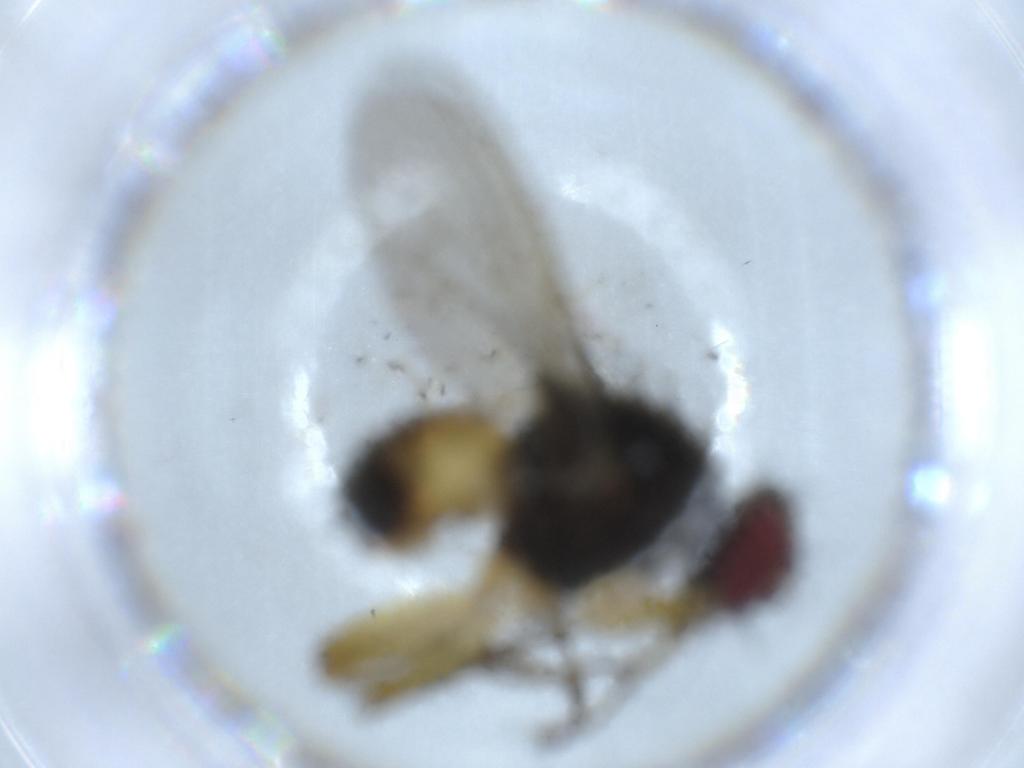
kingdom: Animalia
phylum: Arthropoda
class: Insecta
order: Diptera
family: Muscidae
